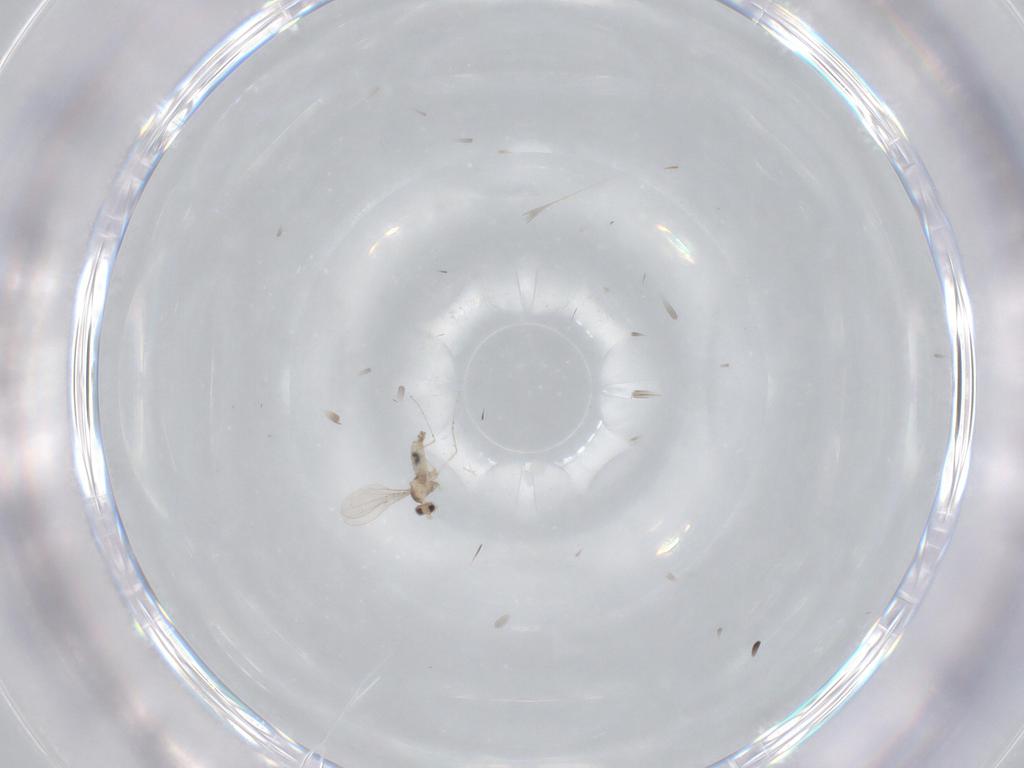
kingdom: Animalia
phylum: Arthropoda
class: Insecta
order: Diptera
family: Cecidomyiidae
